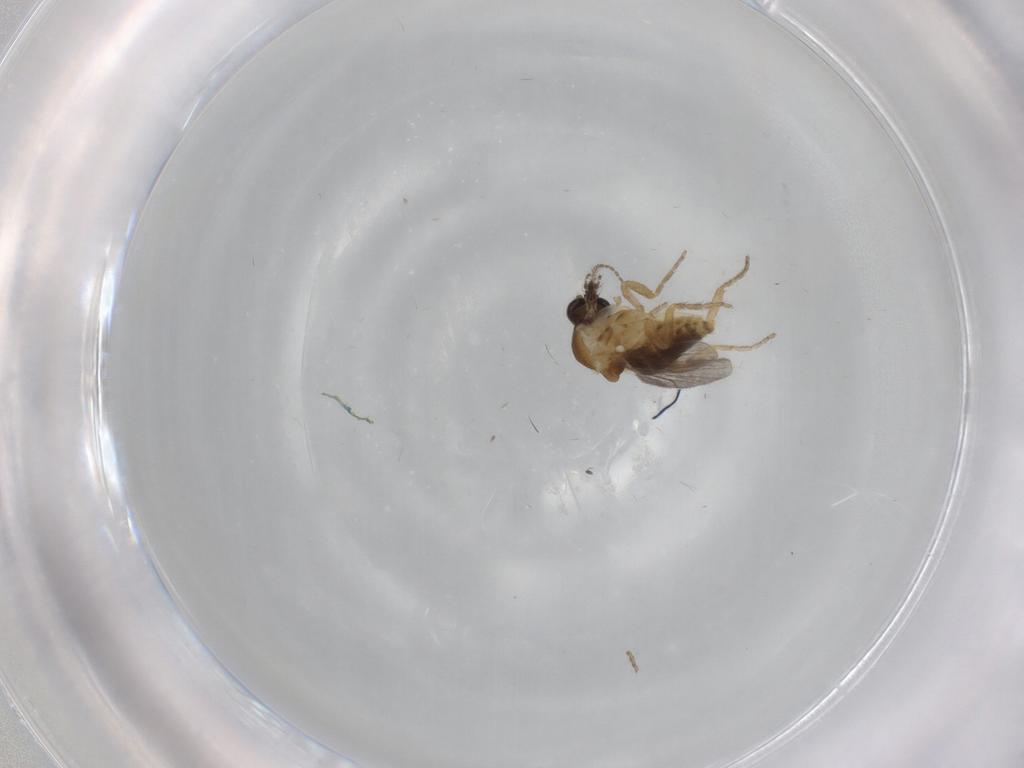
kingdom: Animalia
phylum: Arthropoda
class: Insecta
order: Diptera
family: Ceratopogonidae
